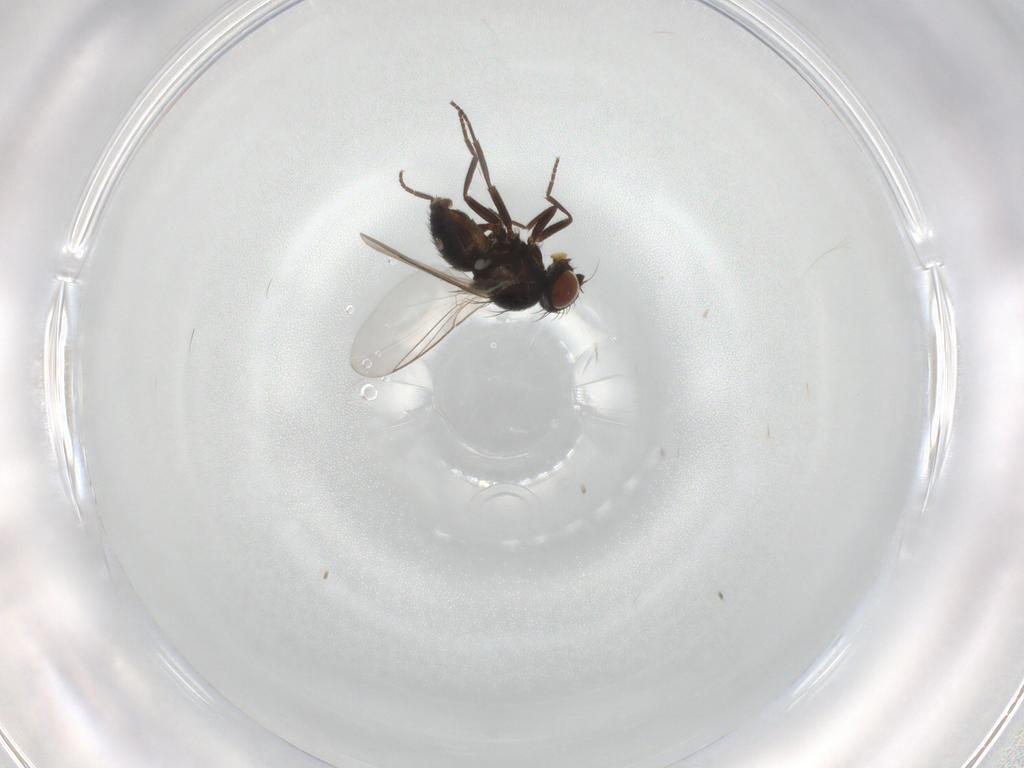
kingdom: Animalia
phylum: Arthropoda
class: Insecta
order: Diptera
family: Culicidae
